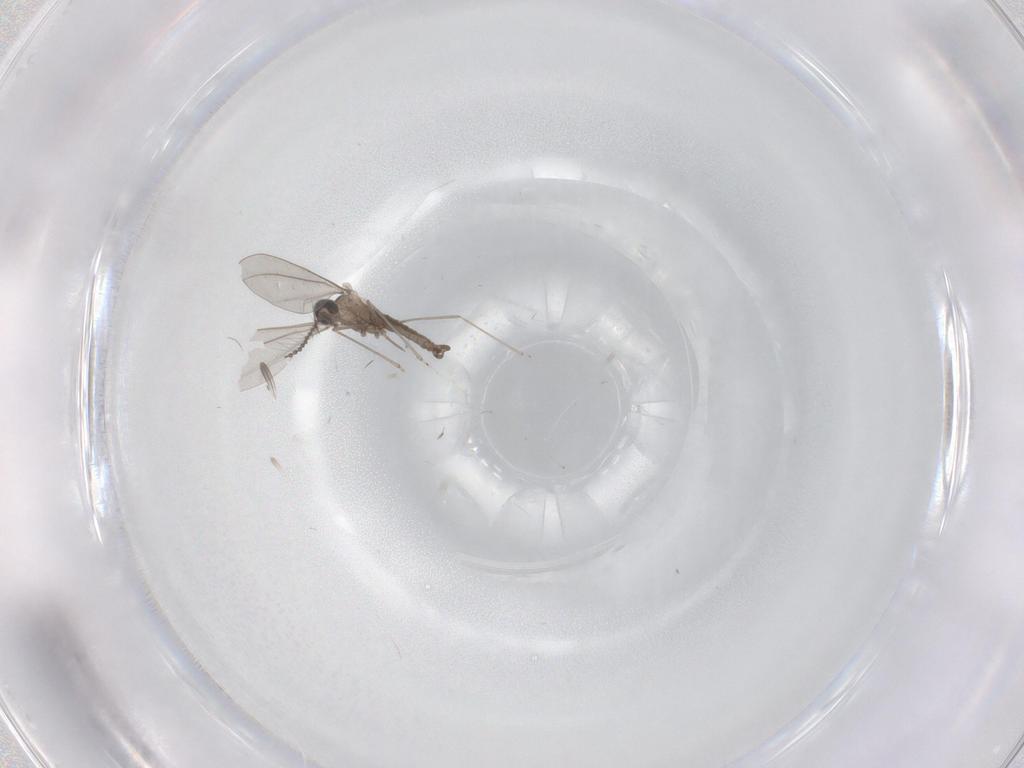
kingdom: Animalia
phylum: Arthropoda
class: Insecta
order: Diptera
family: Cecidomyiidae
